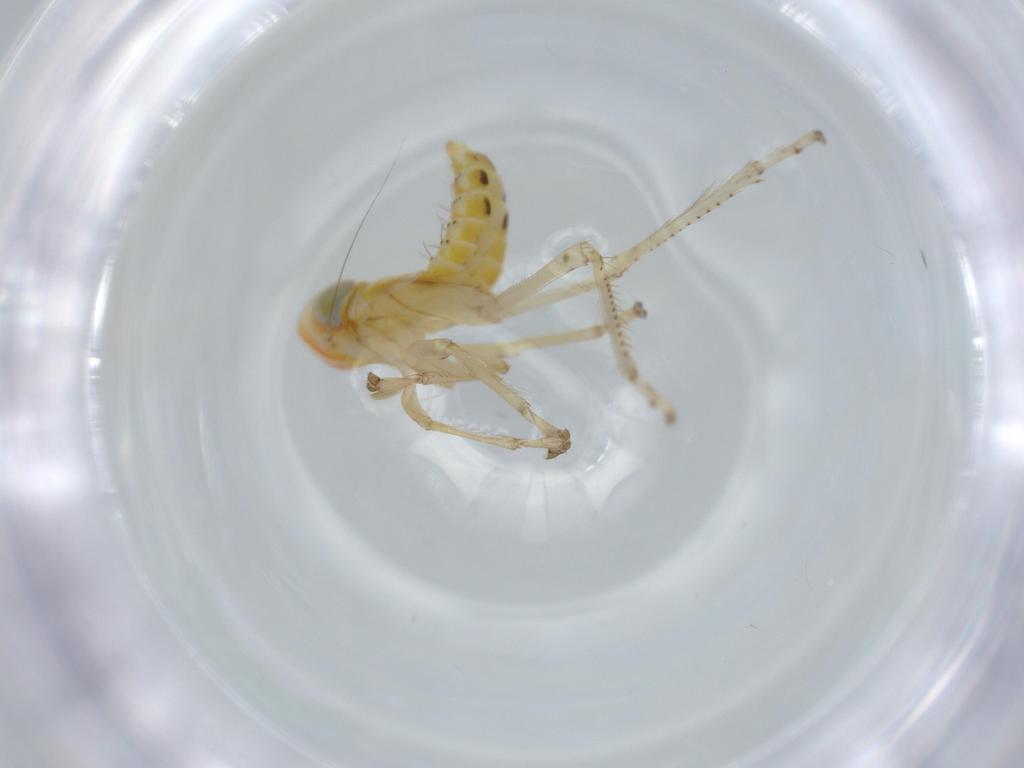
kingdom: Animalia
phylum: Arthropoda
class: Insecta
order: Hemiptera
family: Cicadellidae
